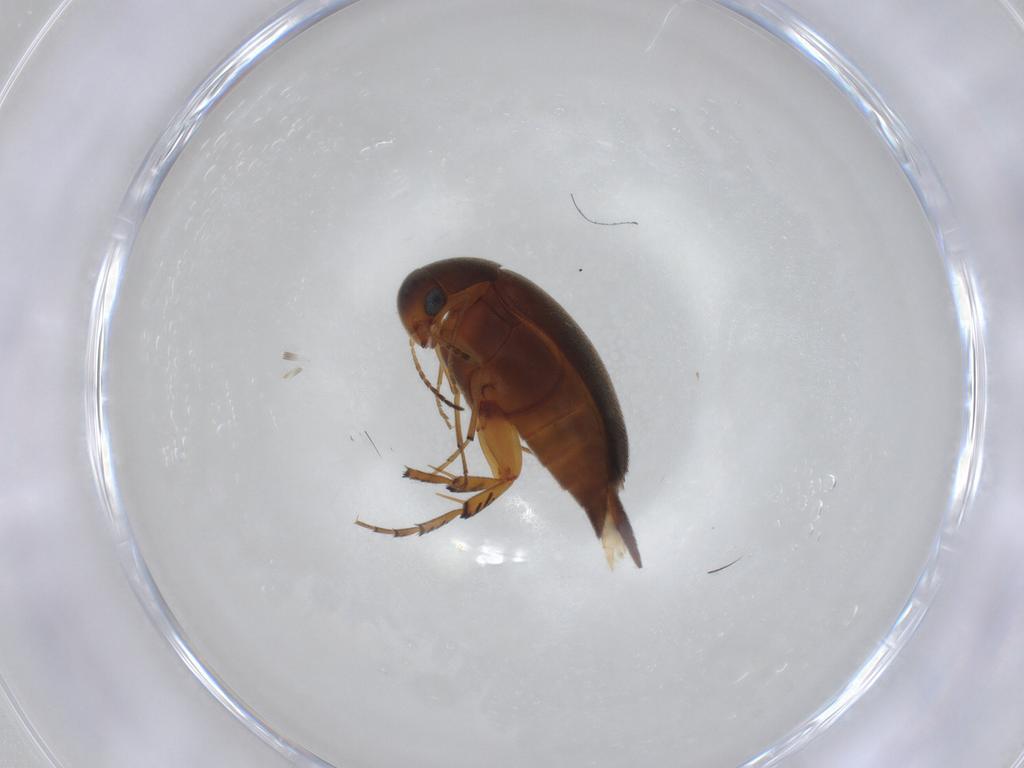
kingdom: Animalia
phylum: Arthropoda
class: Insecta
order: Coleoptera
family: Mordellidae
